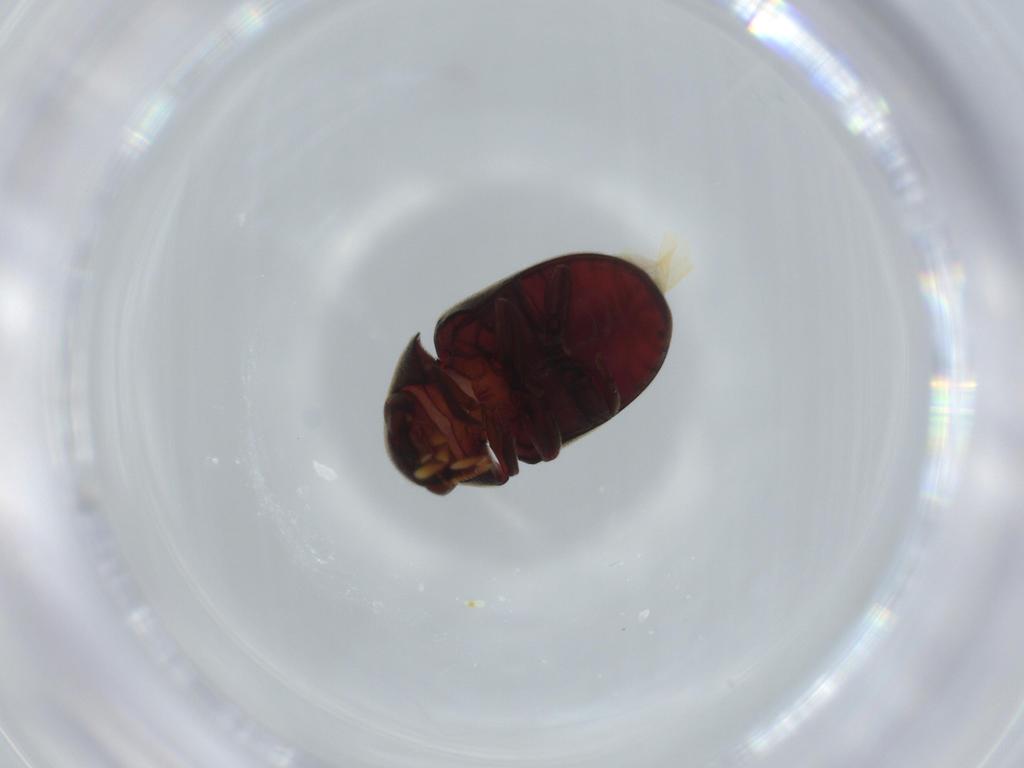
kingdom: Animalia
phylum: Arthropoda
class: Insecta
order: Coleoptera
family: Ptinidae
